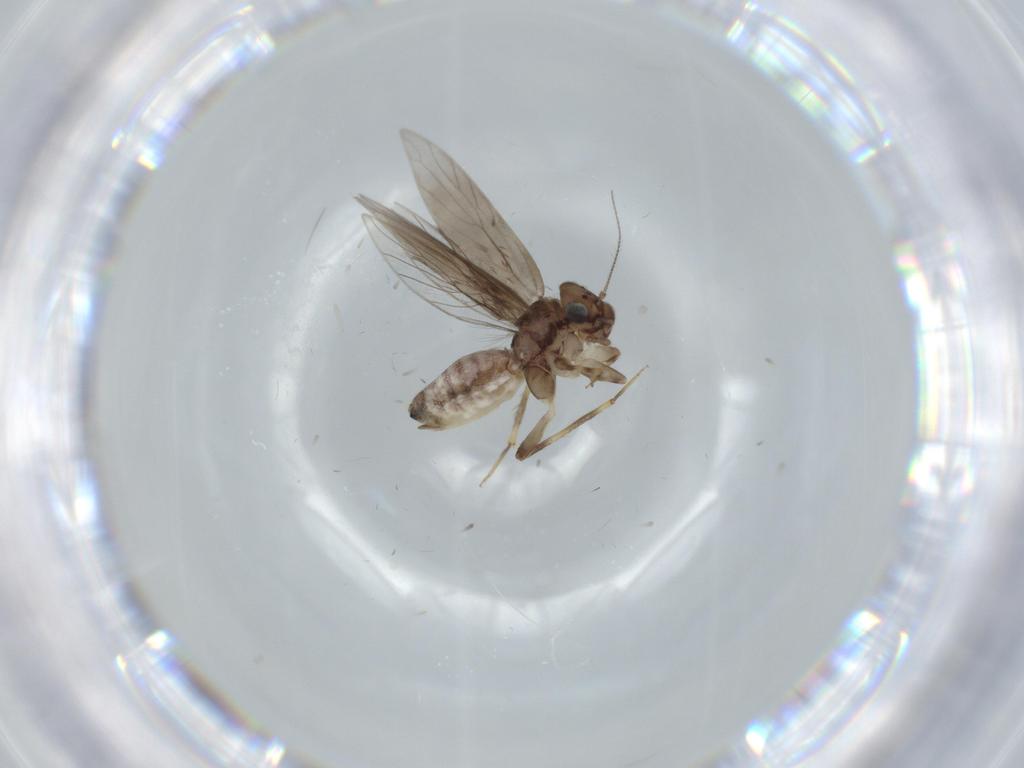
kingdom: Animalia
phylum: Arthropoda
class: Insecta
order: Psocodea
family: Lepidopsocidae
